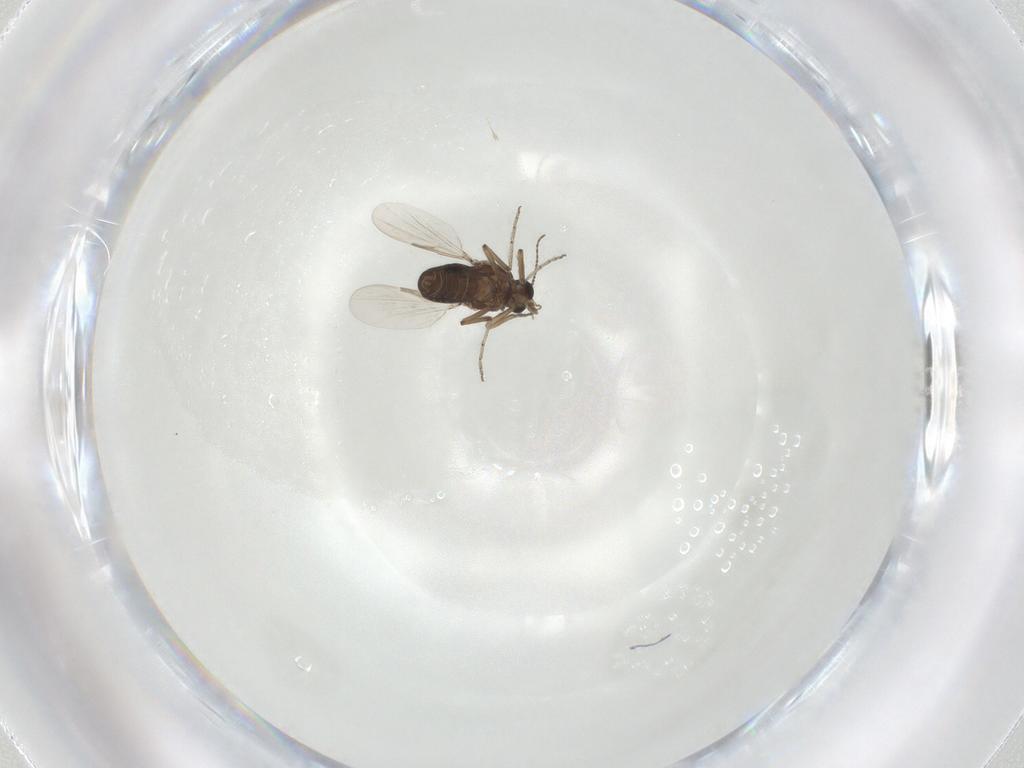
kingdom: Animalia
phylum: Arthropoda
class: Insecta
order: Diptera
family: Ceratopogonidae
